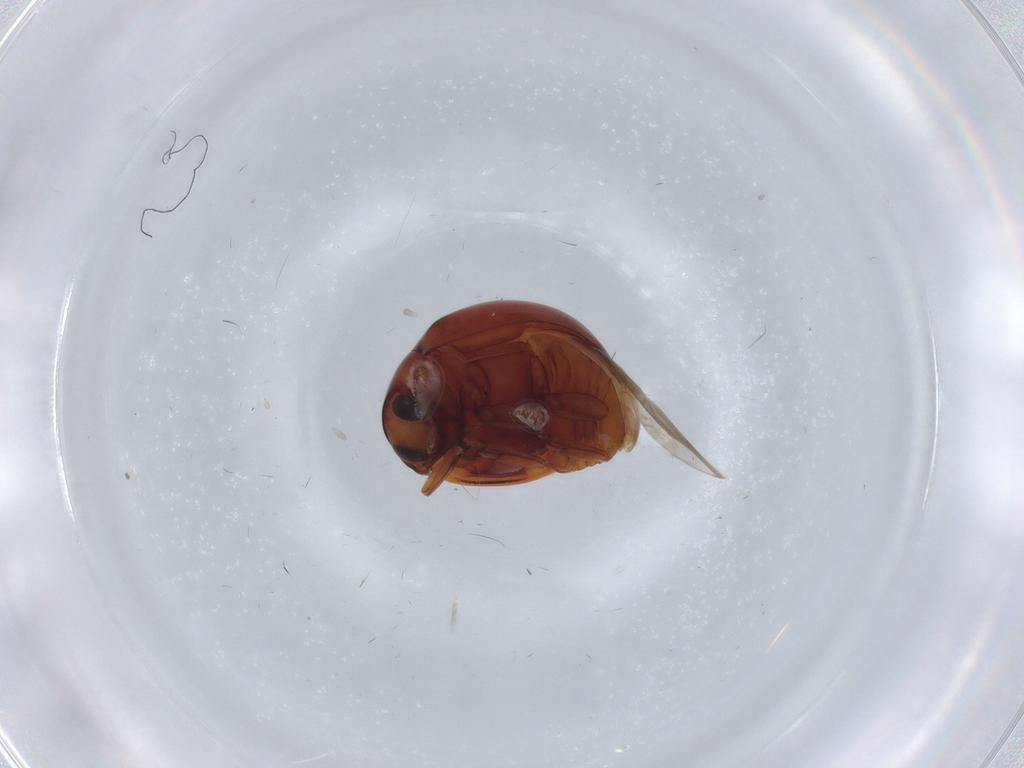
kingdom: Animalia
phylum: Arthropoda
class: Insecta
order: Coleoptera
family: Coccinellidae
